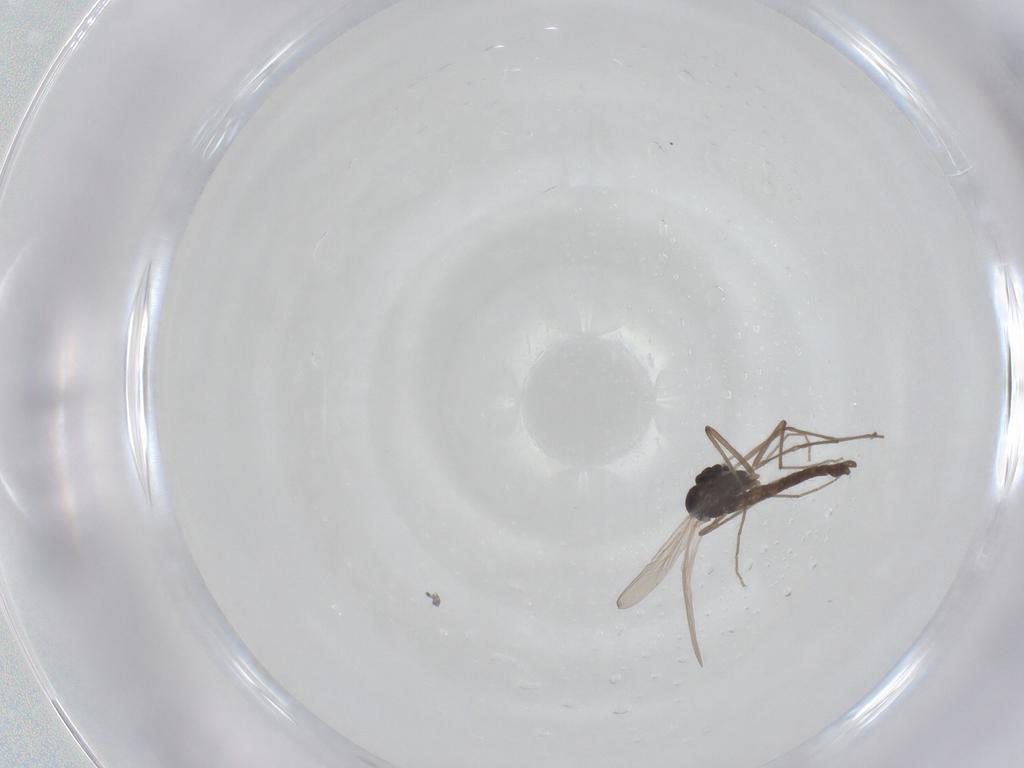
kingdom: Animalia
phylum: Arthropoda
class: Insecta
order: Diptera
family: Chironomidae
